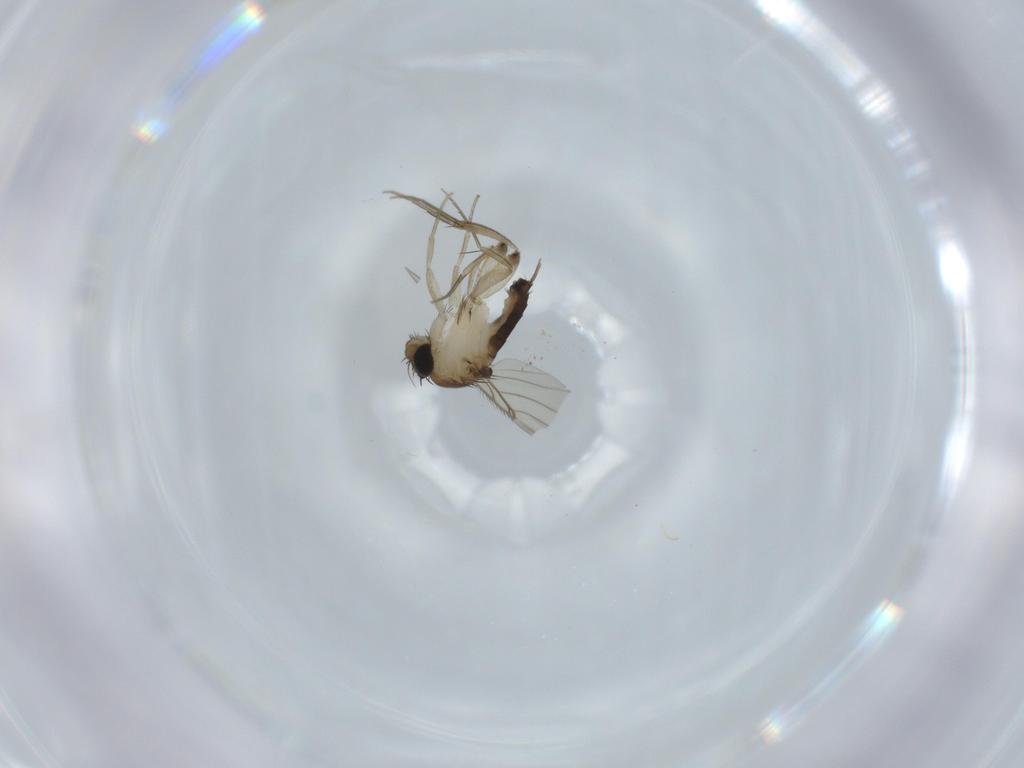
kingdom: Animalia
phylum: Arthropoda
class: Insecta
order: Diptera
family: Phoridae
